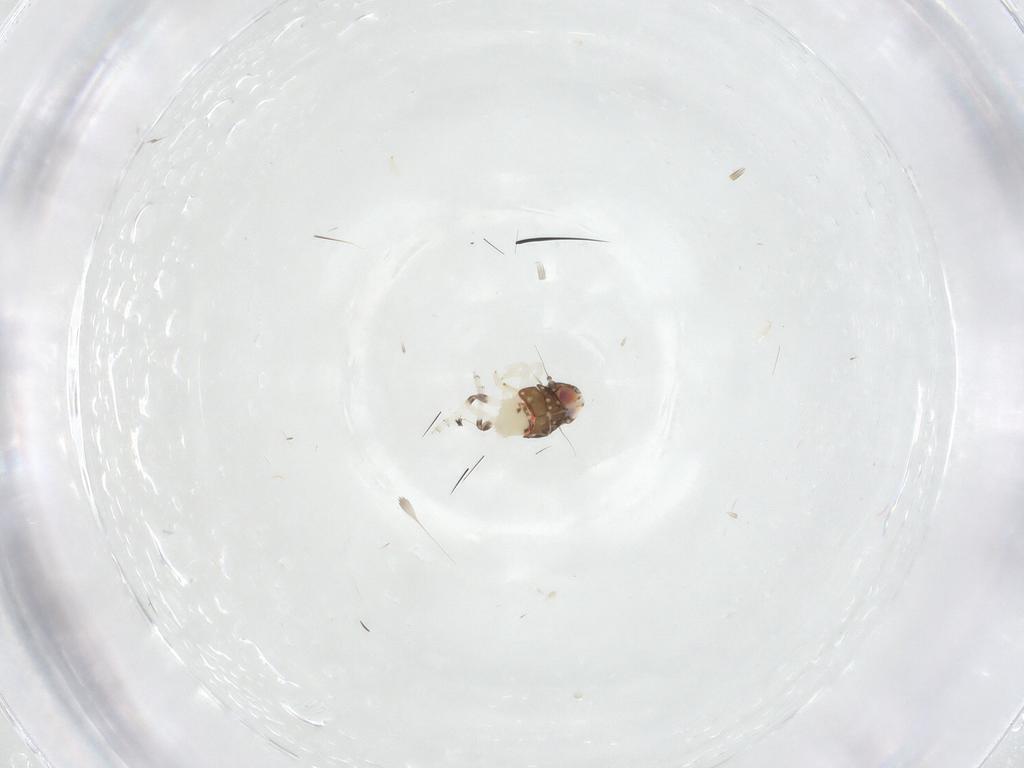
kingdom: Animalia
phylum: Arthropoda
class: Insecta
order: Hemiptera
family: Nogodinidae
